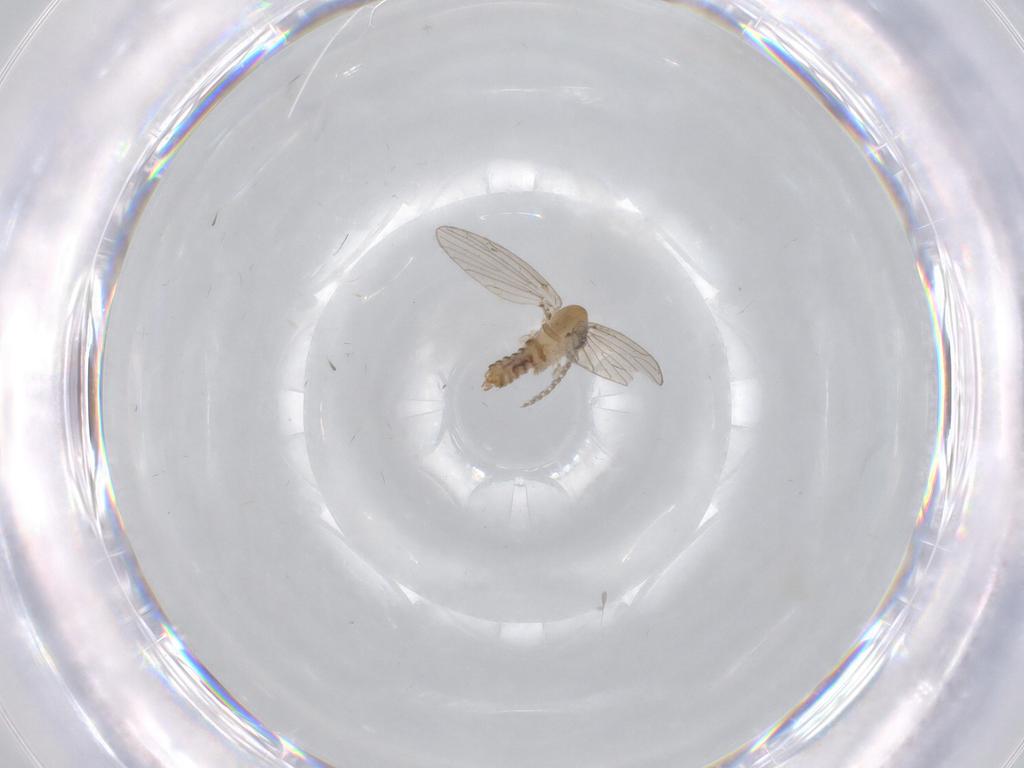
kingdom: Animalia
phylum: Arthropoda
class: Insecta
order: Diptera
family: Psychodidae
